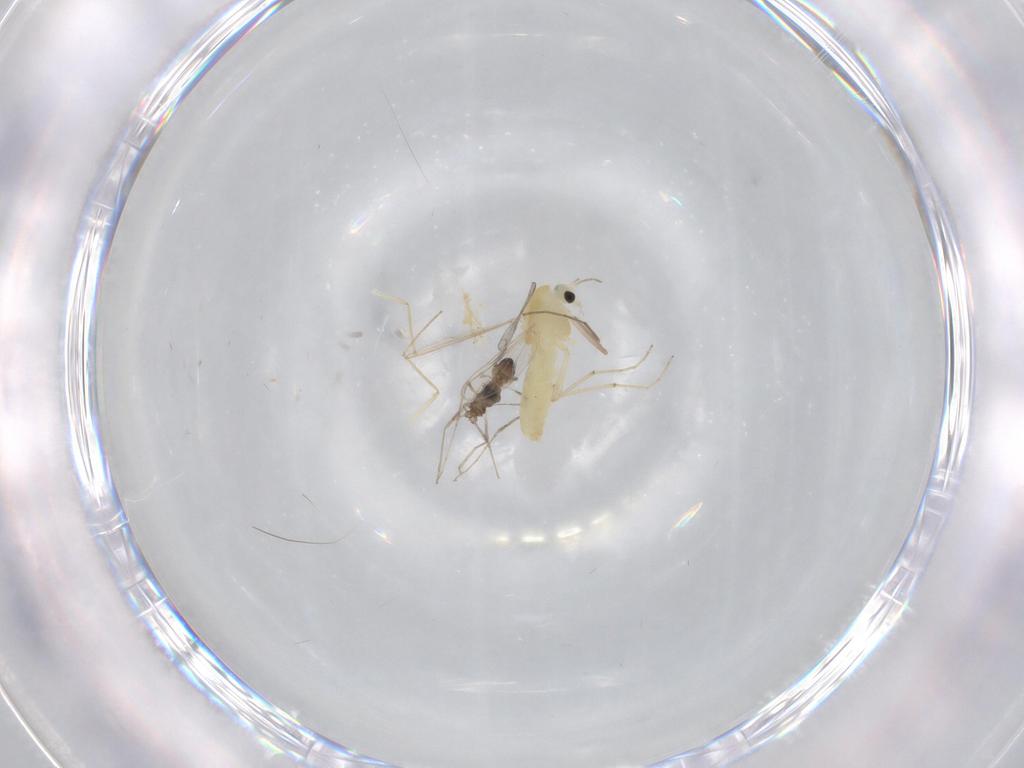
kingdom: Animalia
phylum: Arthropoda
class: Insecta
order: Diptera
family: Chironomidae
